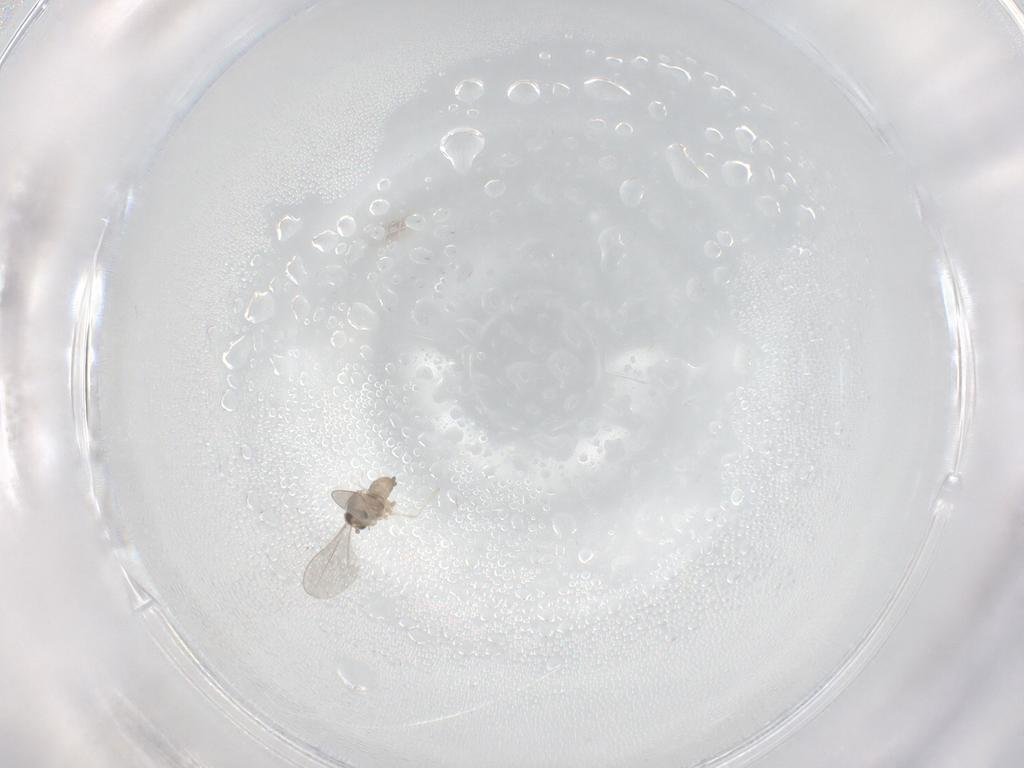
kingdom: Animalia
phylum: Arthropoda
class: Insecta
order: Diptera
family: Cecidomyiidae
